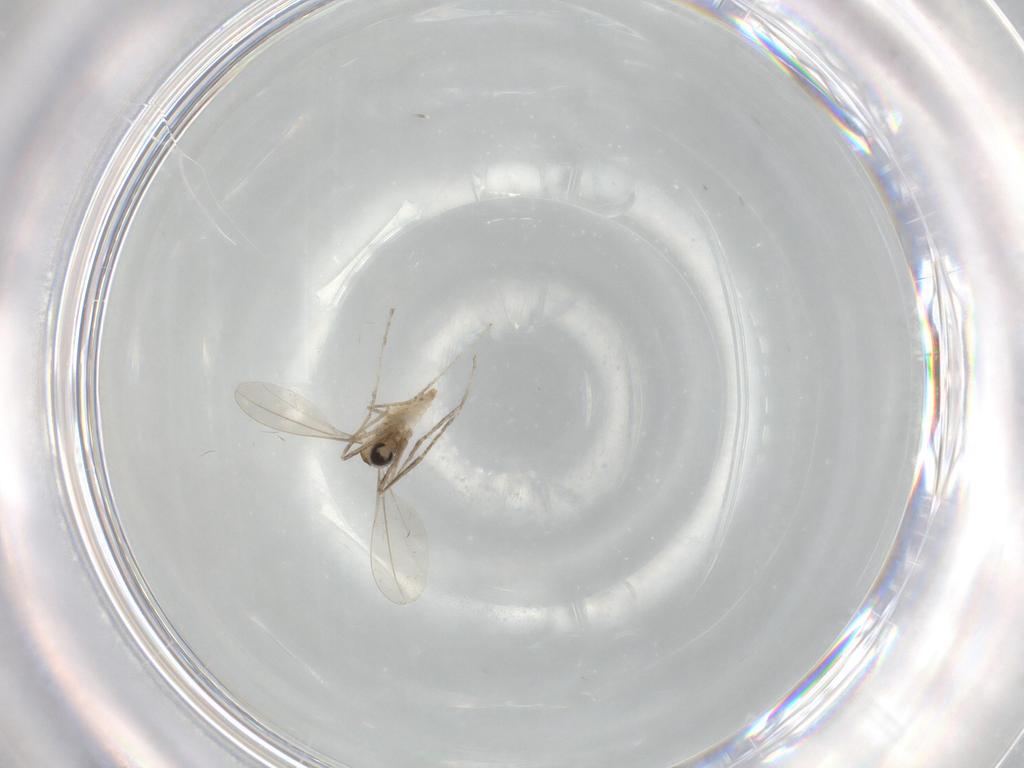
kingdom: Animalia
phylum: Arthropoda
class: Insecta
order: Diptera
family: Cecidomyiidae
